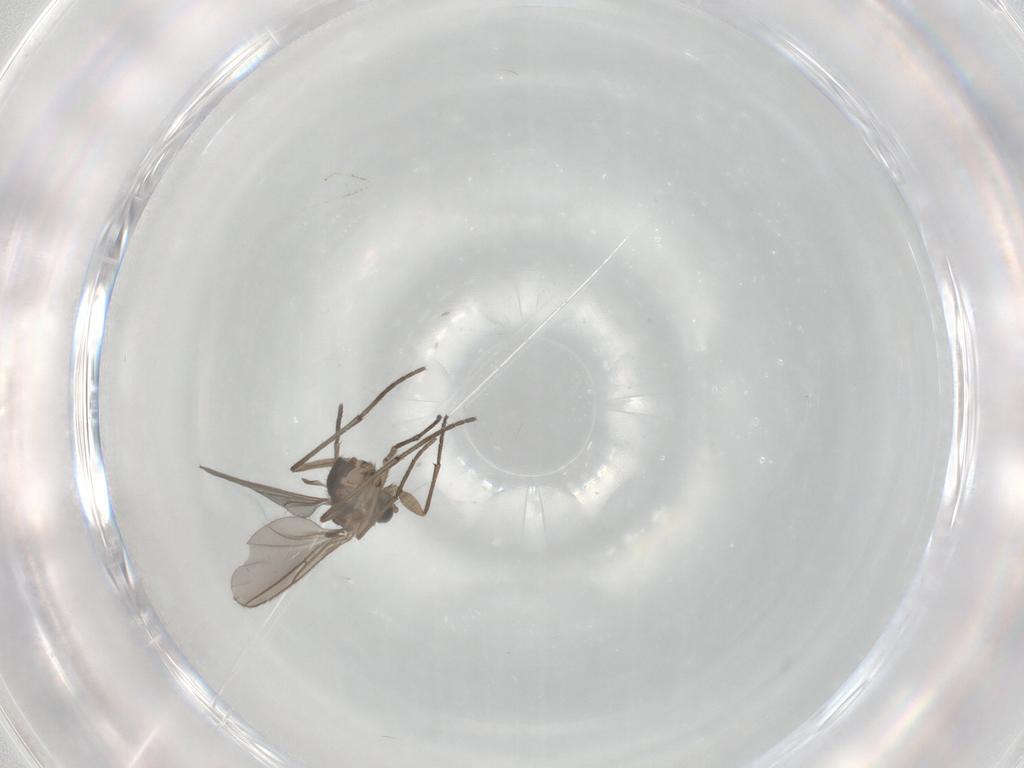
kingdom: Animalia
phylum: Arthropoda
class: Insecta
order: Diptera
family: Sciaridae
